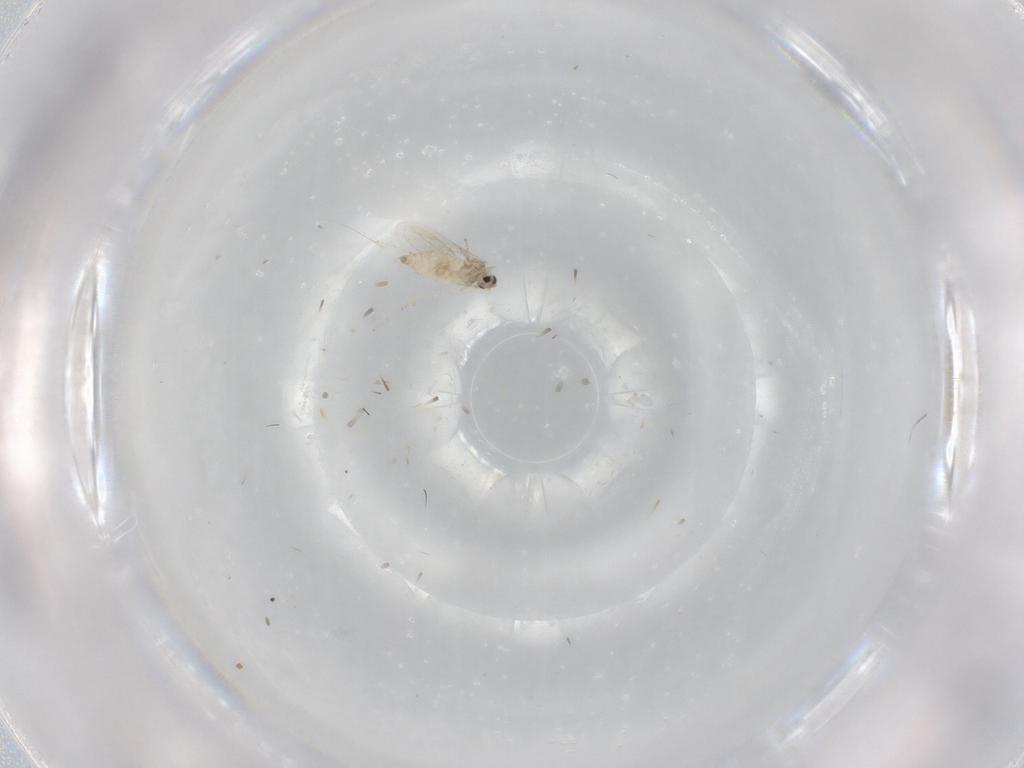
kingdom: Animalia
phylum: Arthropoda
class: Insecta
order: Diptera
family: Cecidomyiidae
